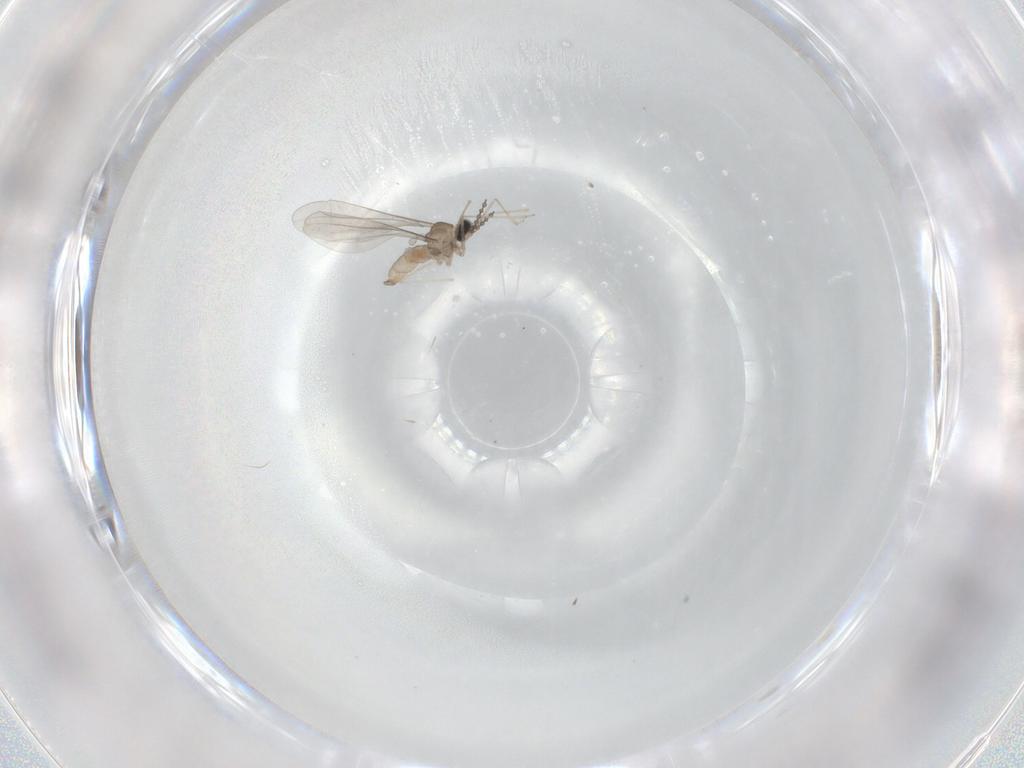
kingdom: Animalia
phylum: Arthropoda
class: Insecta
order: Diptera
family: Cecidomyiidae
